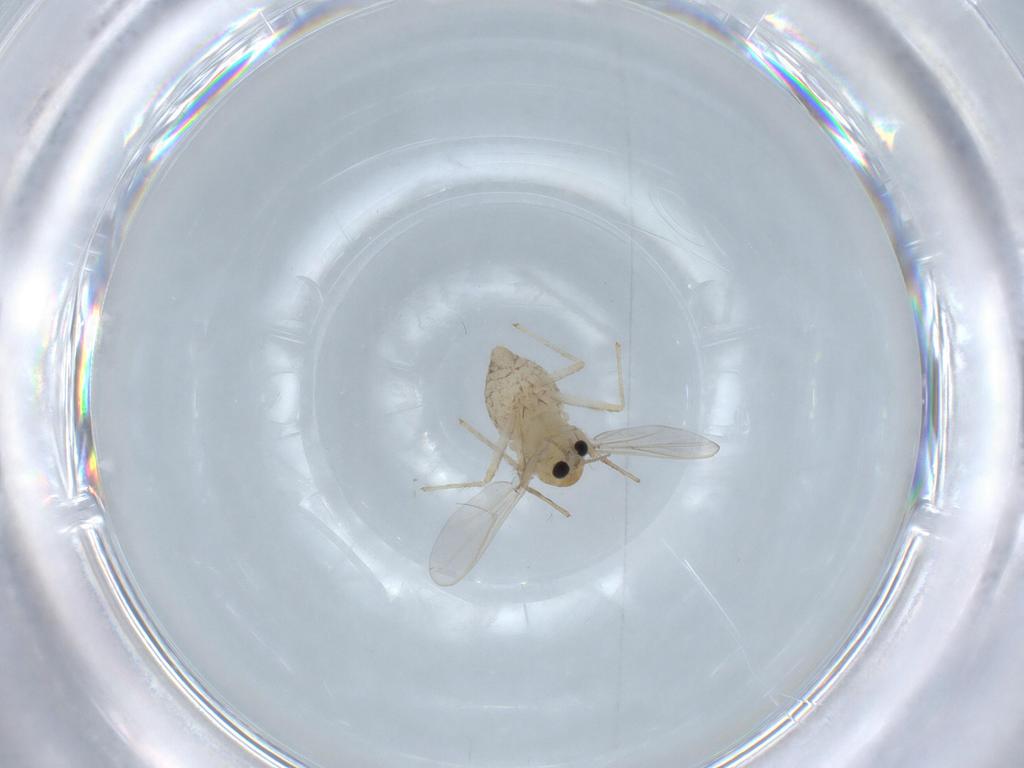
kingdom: Animalia
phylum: Arthropoda
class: Insecta
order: Diptera
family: Chironomidae
